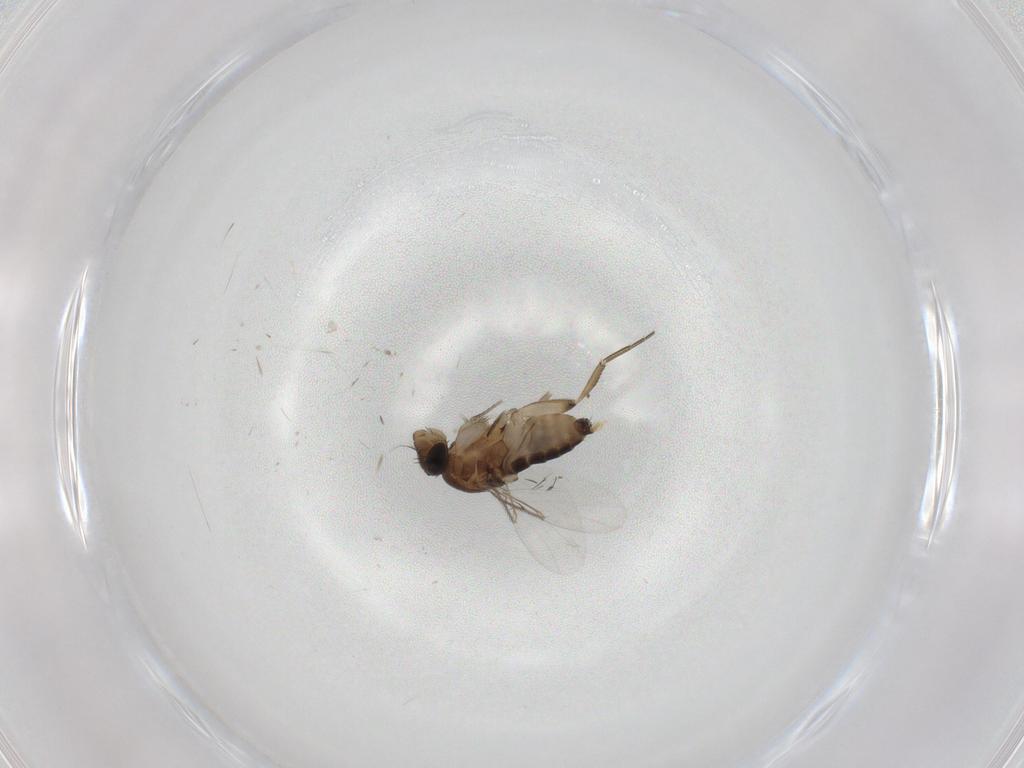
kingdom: Animalia
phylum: Arthropoda
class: Insecta
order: Diptera
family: Phoridae
